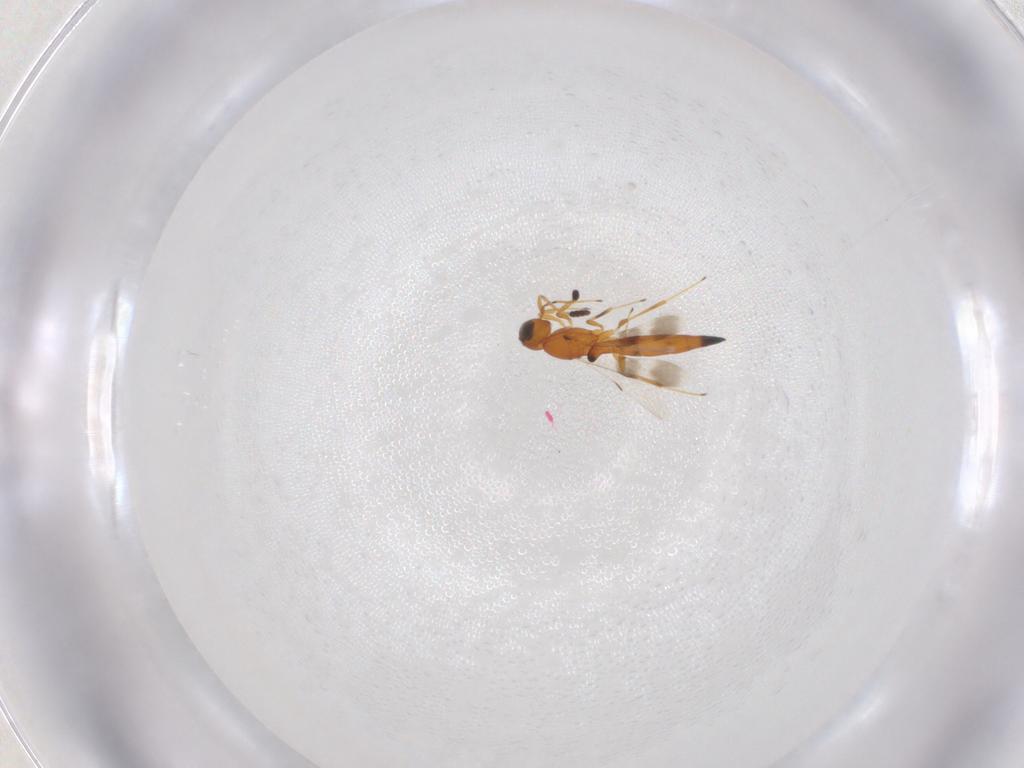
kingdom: Animalia
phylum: Arthropoda
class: Insecta
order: Hymenoptera
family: Scelionidae
